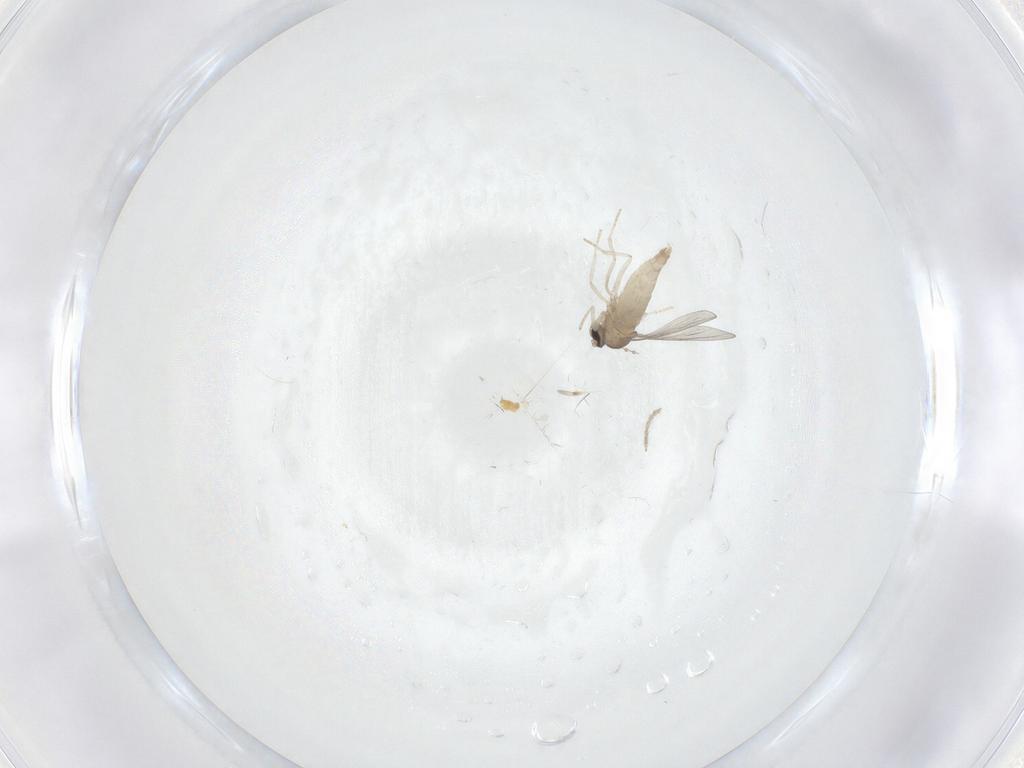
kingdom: Animalia
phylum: Arthropoda
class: Insecta
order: Diptera
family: Cecidomyiidae
